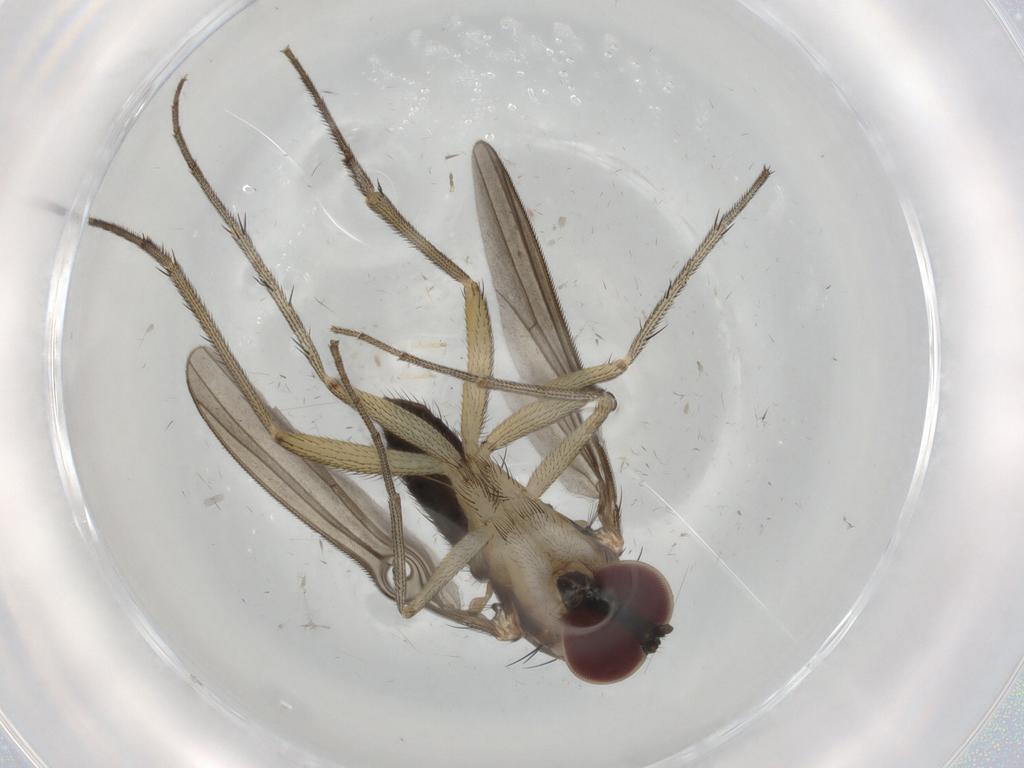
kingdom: Animalia
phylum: Arthropoda
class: Insecta
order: Diptera
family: Dolichopodidae
